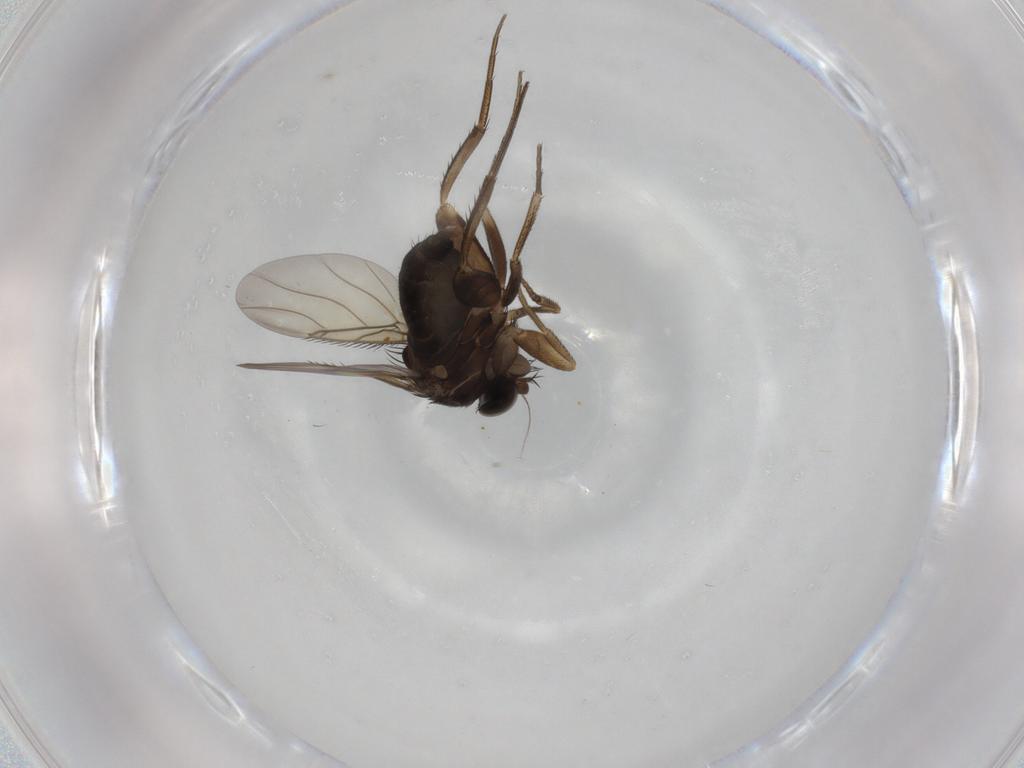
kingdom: Animalia
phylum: Arthropoda
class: Insecta
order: Diptera
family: Phoridae
